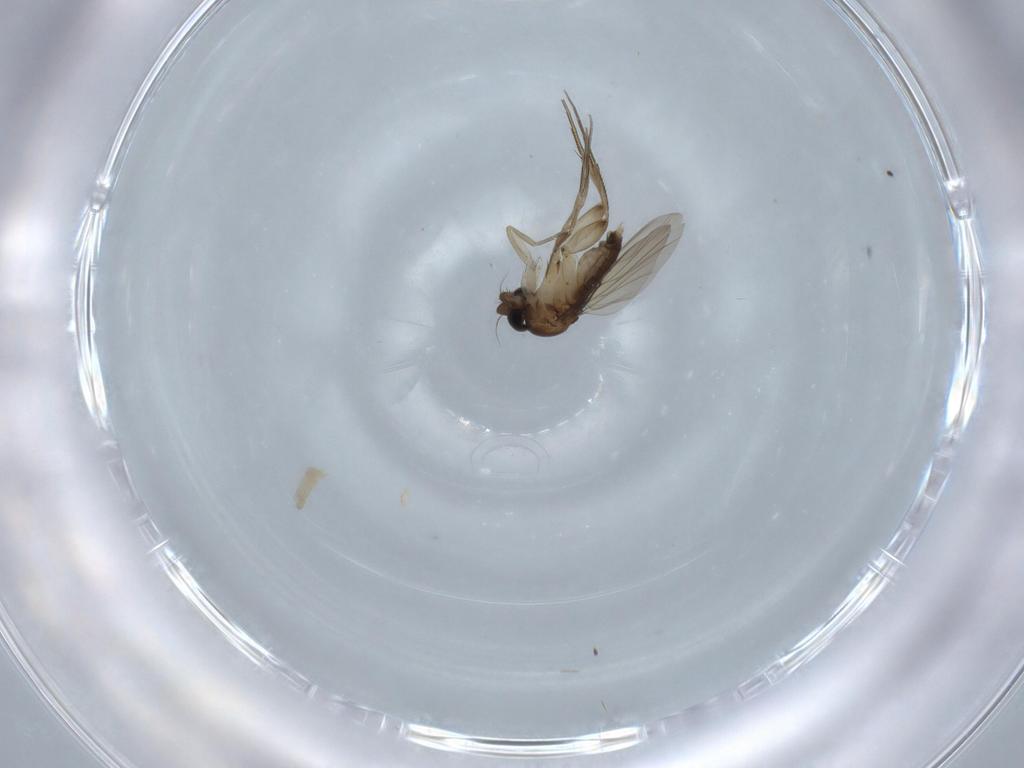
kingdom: Animalia
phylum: Arthropoda
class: Insecta
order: Diptera
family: Phoridae
